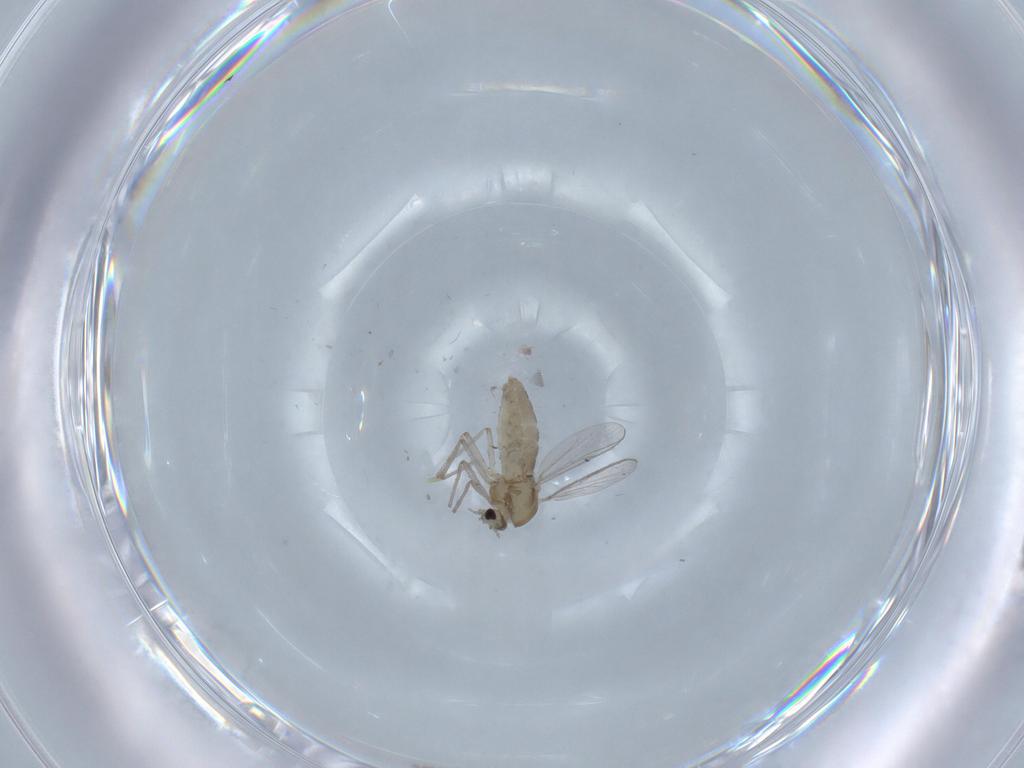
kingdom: Animalia
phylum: Arthropoda
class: Insecta
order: Diptera
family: Chironomidae
